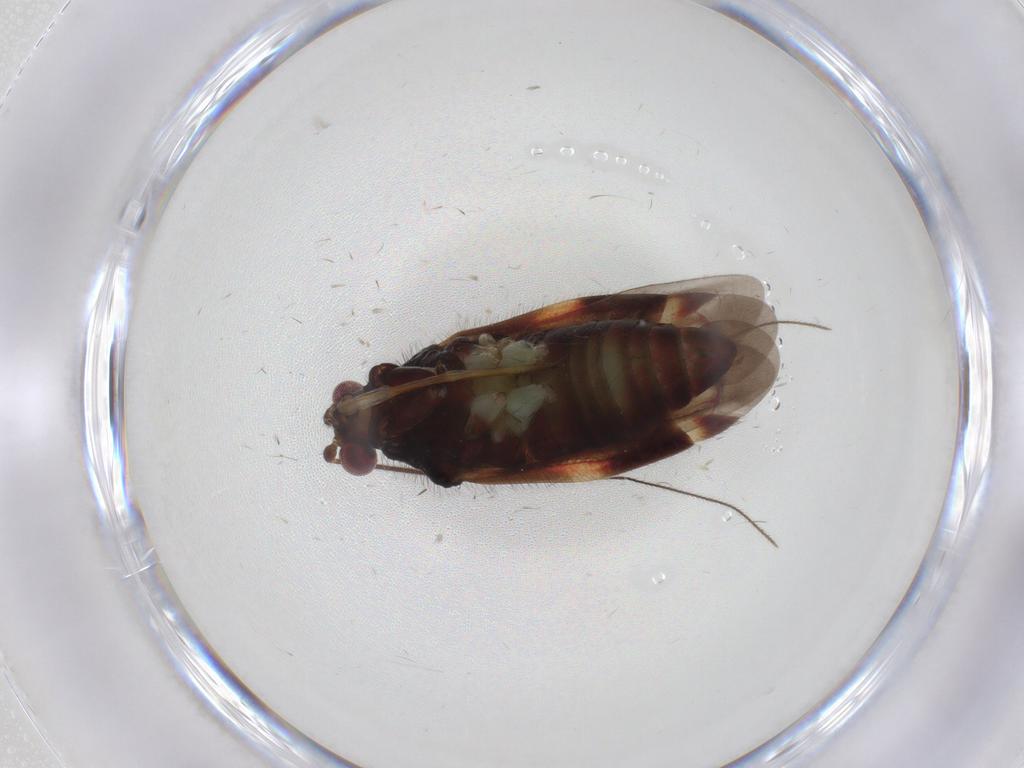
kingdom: Animalia
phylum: Arthropoda
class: Insecta
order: Hemiptera
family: Miridae
